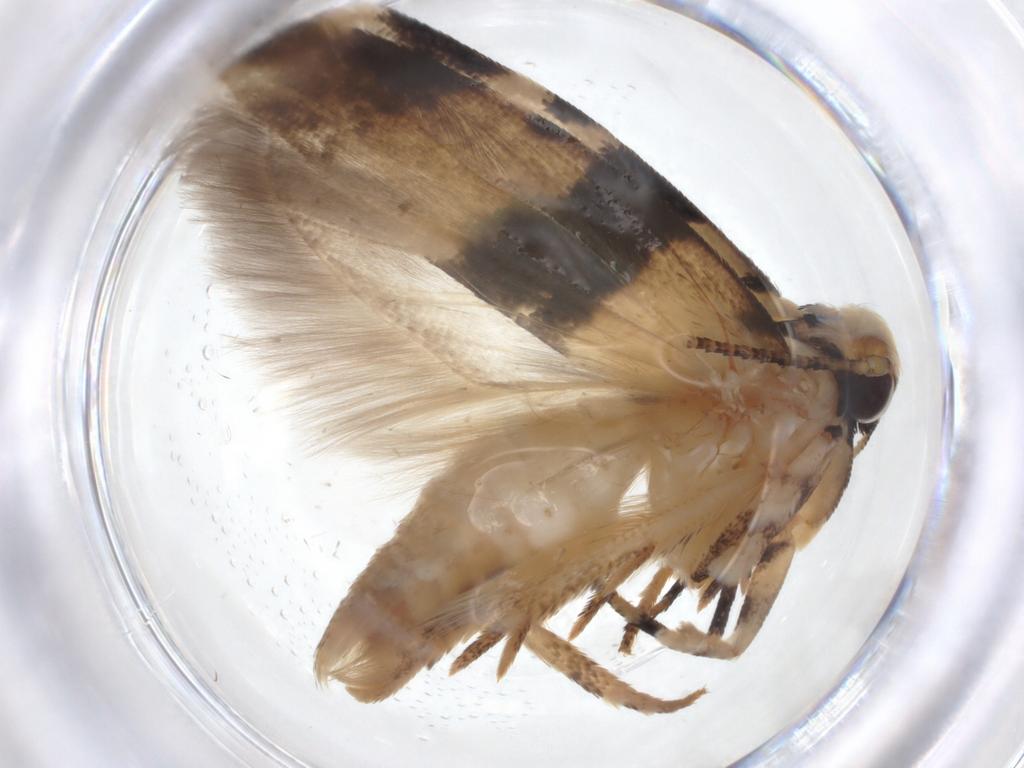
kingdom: Animalia
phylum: Arthropoda
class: Insecta
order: Lepidoptera
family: Gelechiidae
